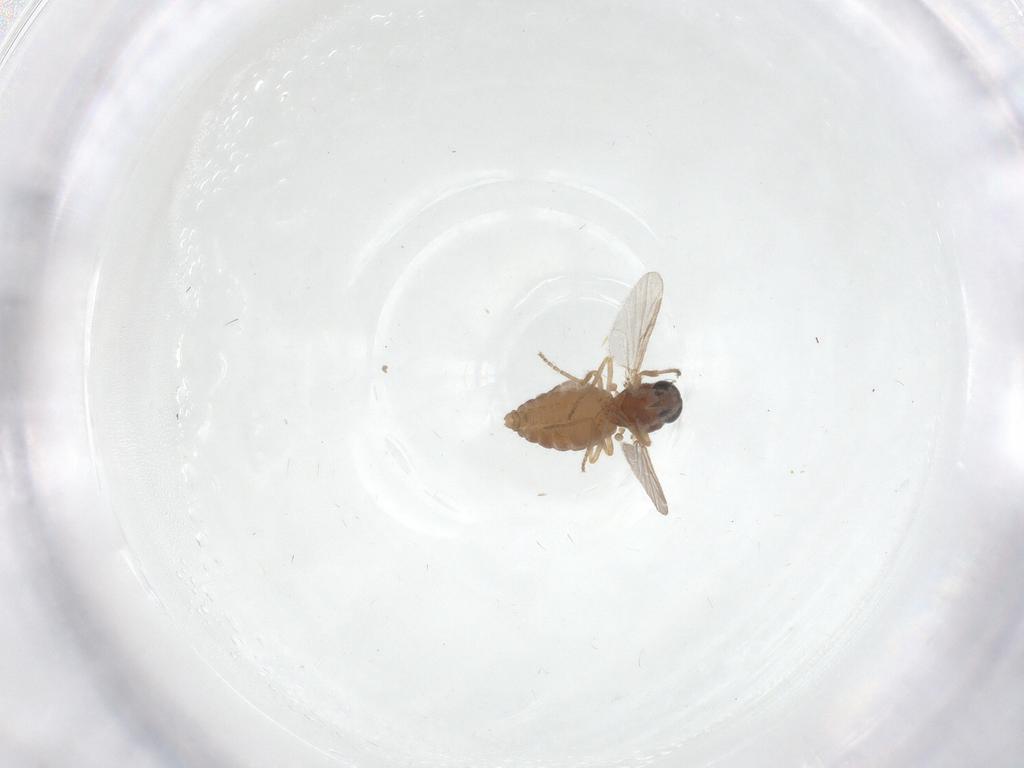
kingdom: Animalia
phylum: Arthropoda
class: Insecta
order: Diptera
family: Ceratopogonidae
